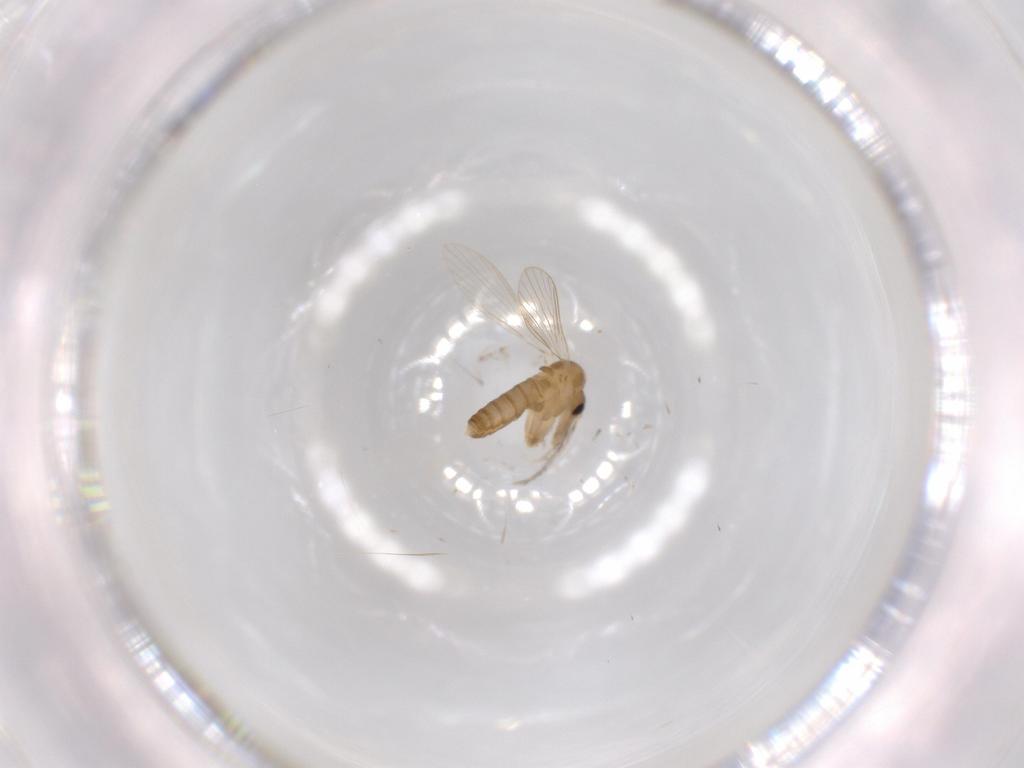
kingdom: Animalia
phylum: Arthropoda
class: Insecta
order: Diptera
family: Psychodidae
